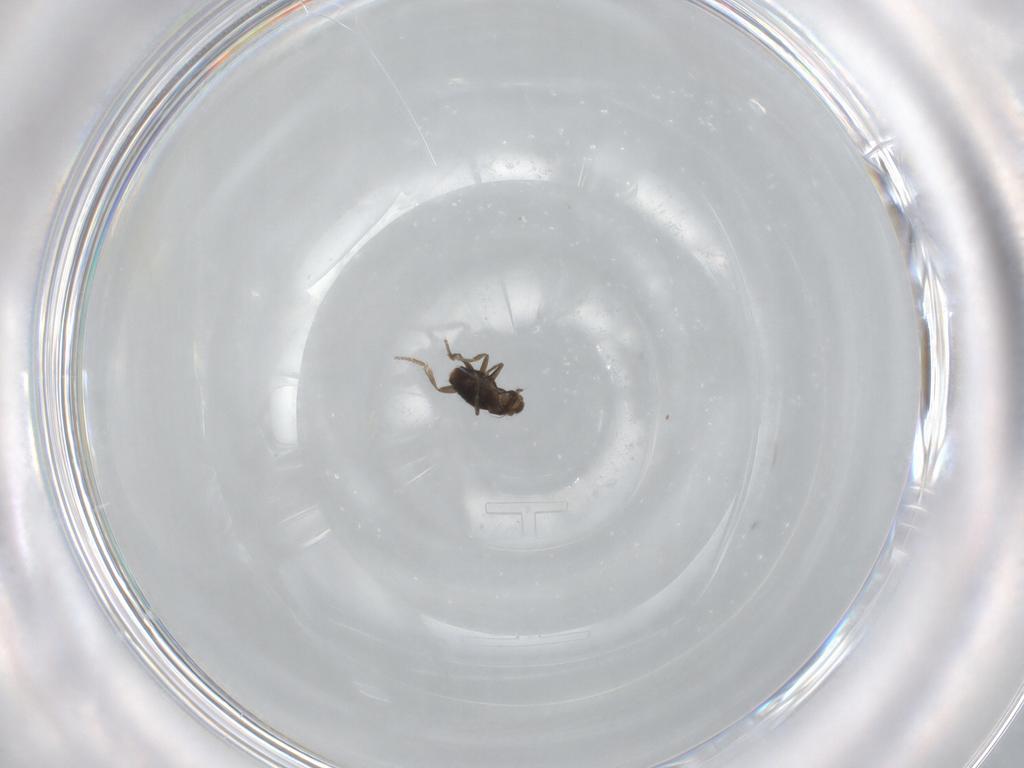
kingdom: Animalia
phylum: Arthropoda
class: Insecta
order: Diptera
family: Phoridae
